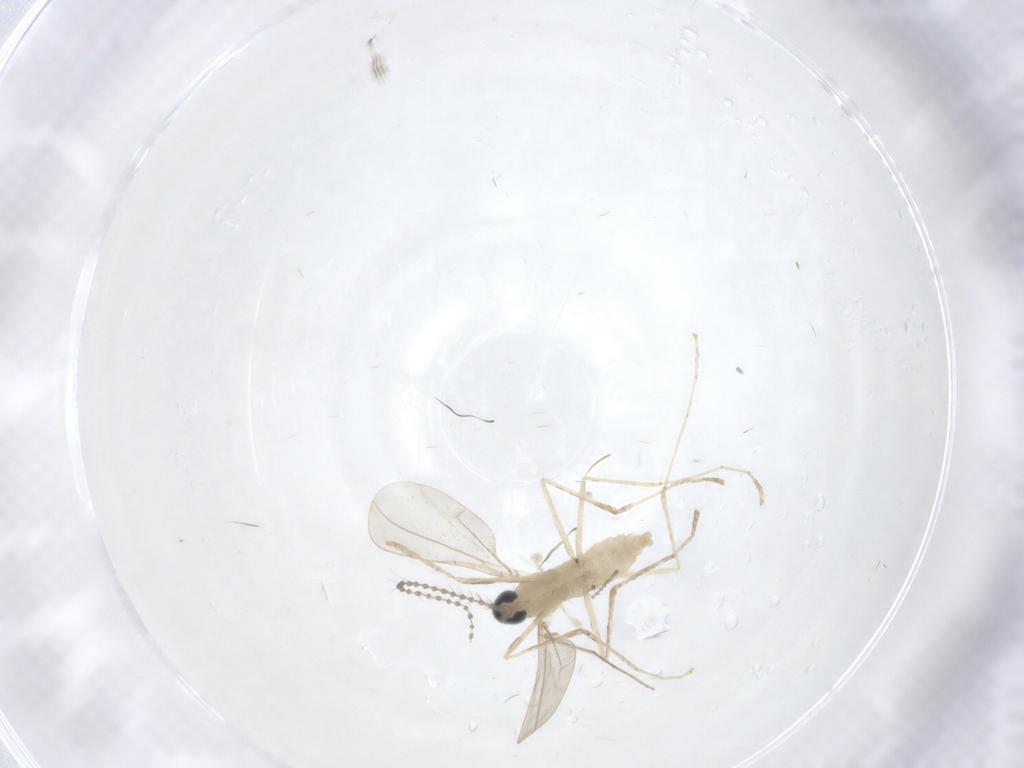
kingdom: Animalia
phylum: Arthropoda
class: Insecta
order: Diptera
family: Cecidomyiidae
